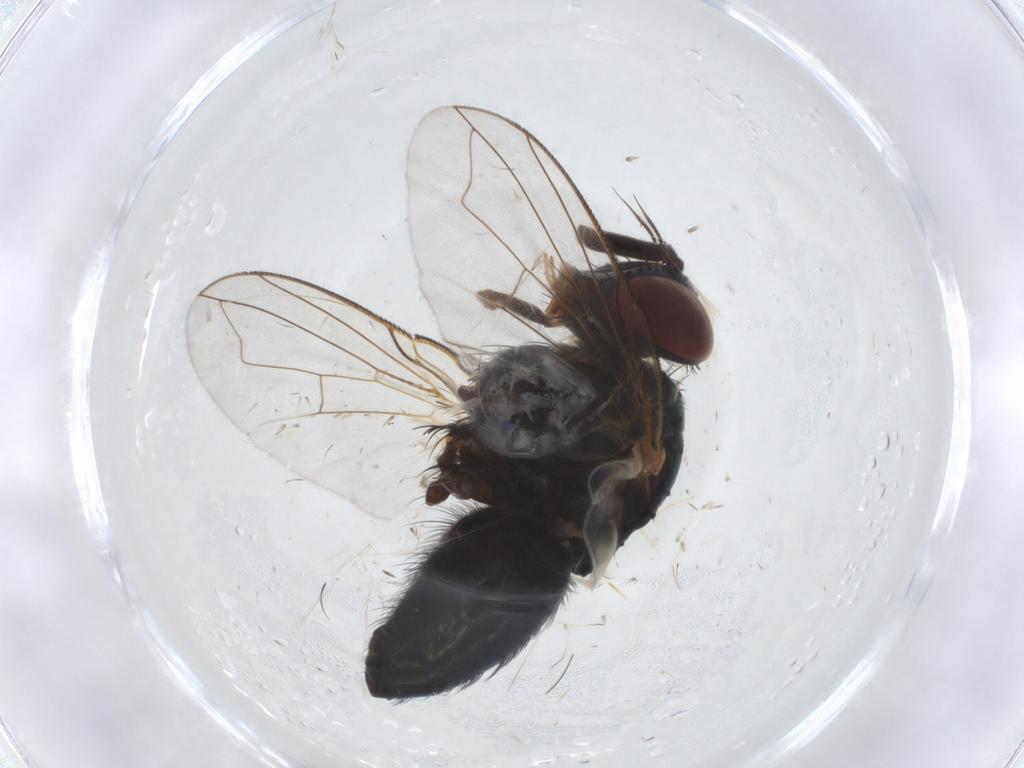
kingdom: Animalia
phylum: Arthropoda
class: Insecta
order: Diptera
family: Tachinidae
